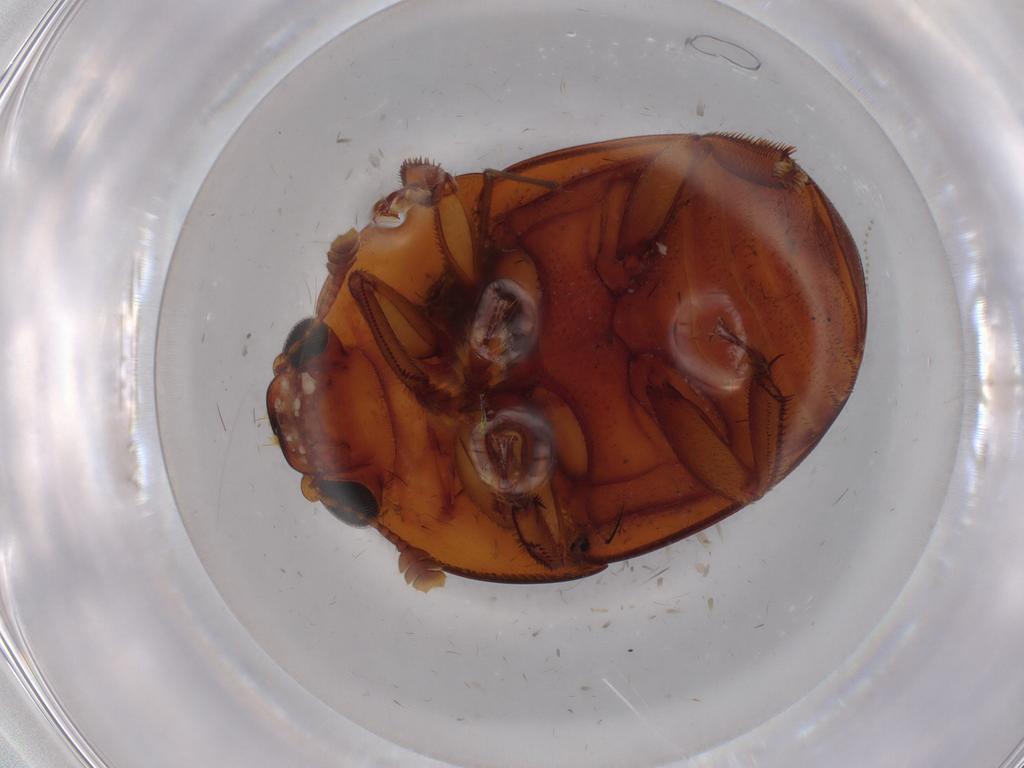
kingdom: Animalia
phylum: Arthropoda
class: Insecta
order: Coleoptera
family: Nitidulidae
